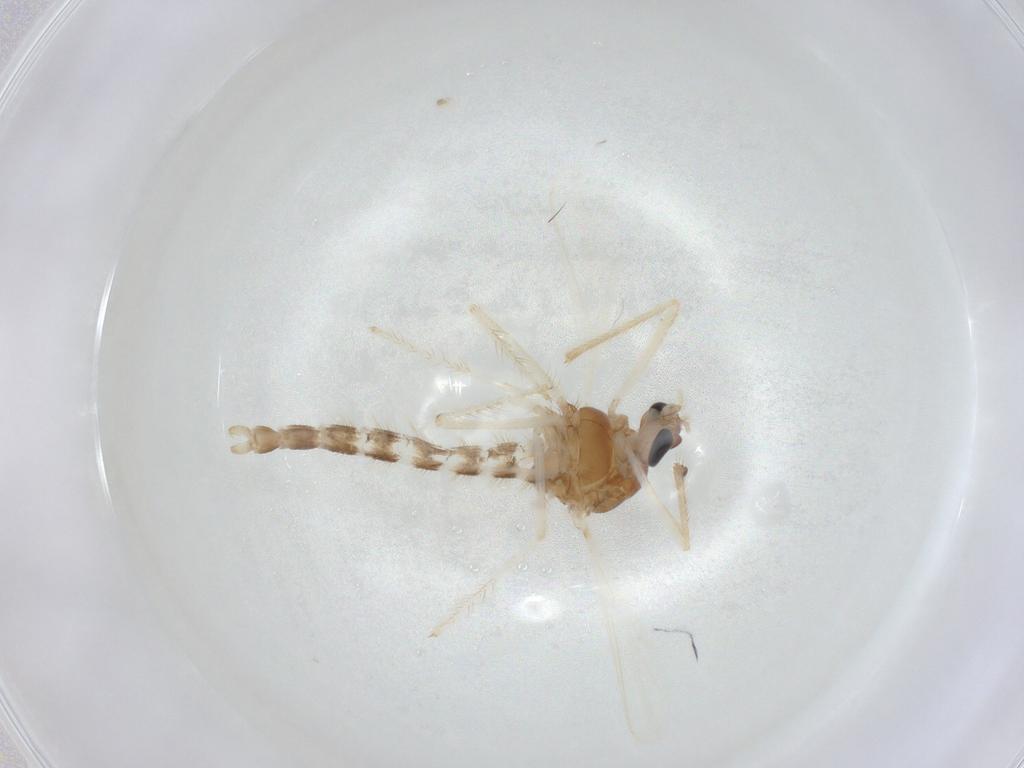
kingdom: Animalia
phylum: Arthropoda
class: Insecta
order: Diptera
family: Chironomidae
